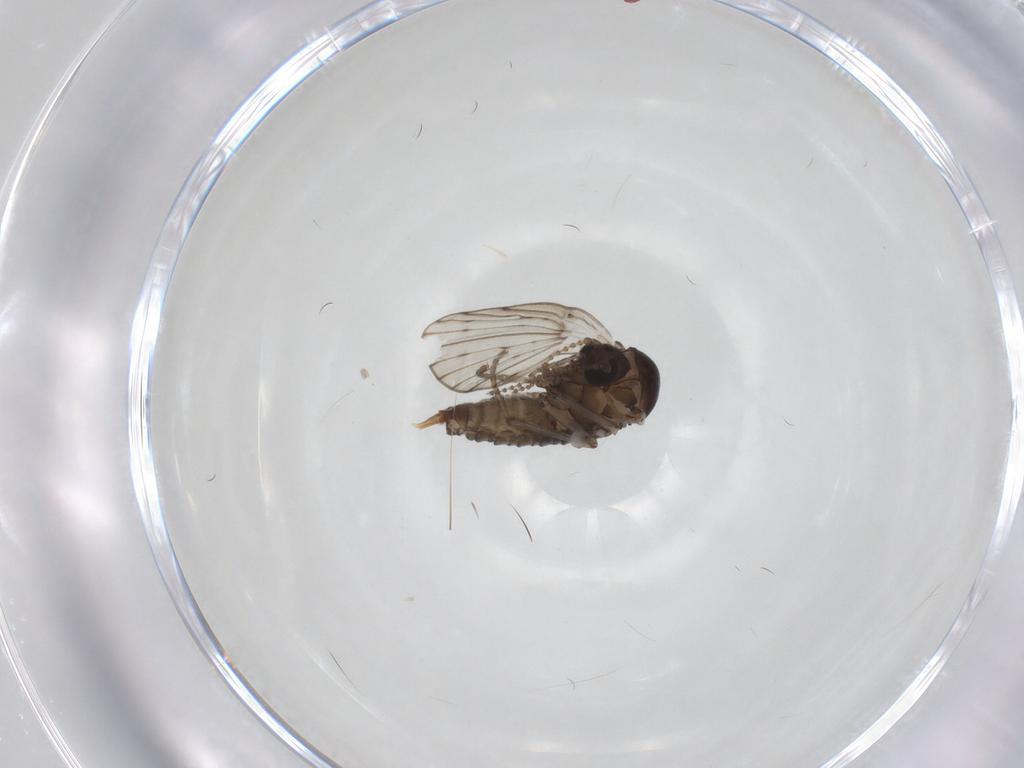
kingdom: Animalia
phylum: Arthropoda
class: Insecta
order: Diptera
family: Psychodidae
